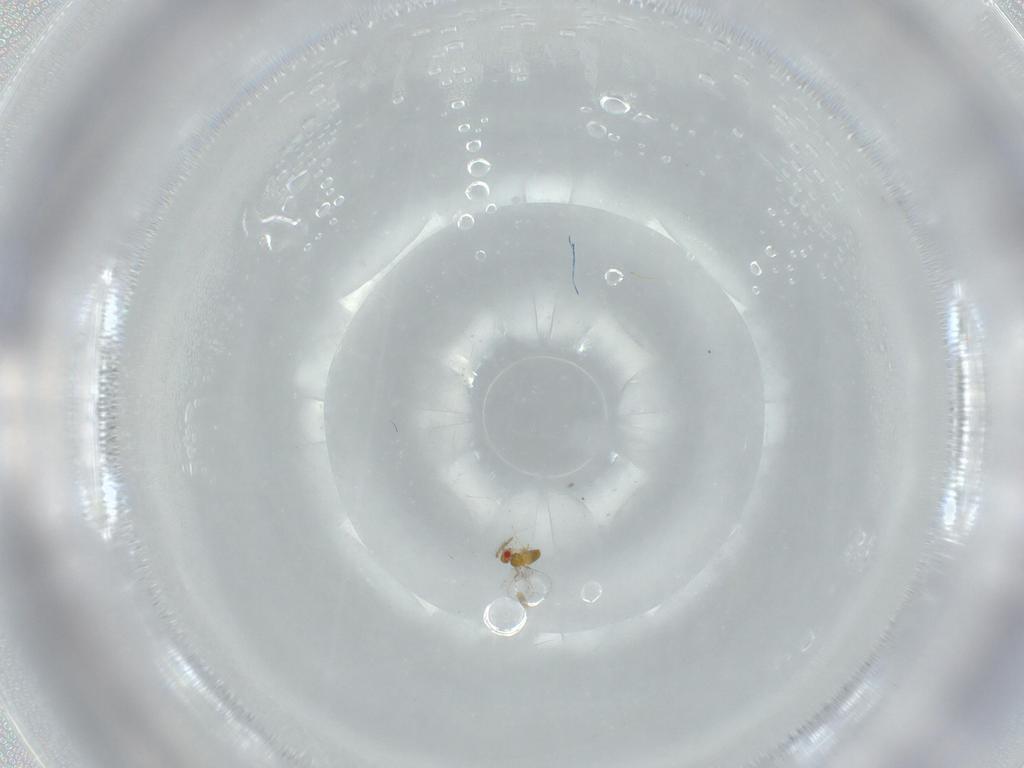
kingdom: Animalia
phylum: Arthropoda
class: Insecta
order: Hymenoptera
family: Trichogrammatidae
